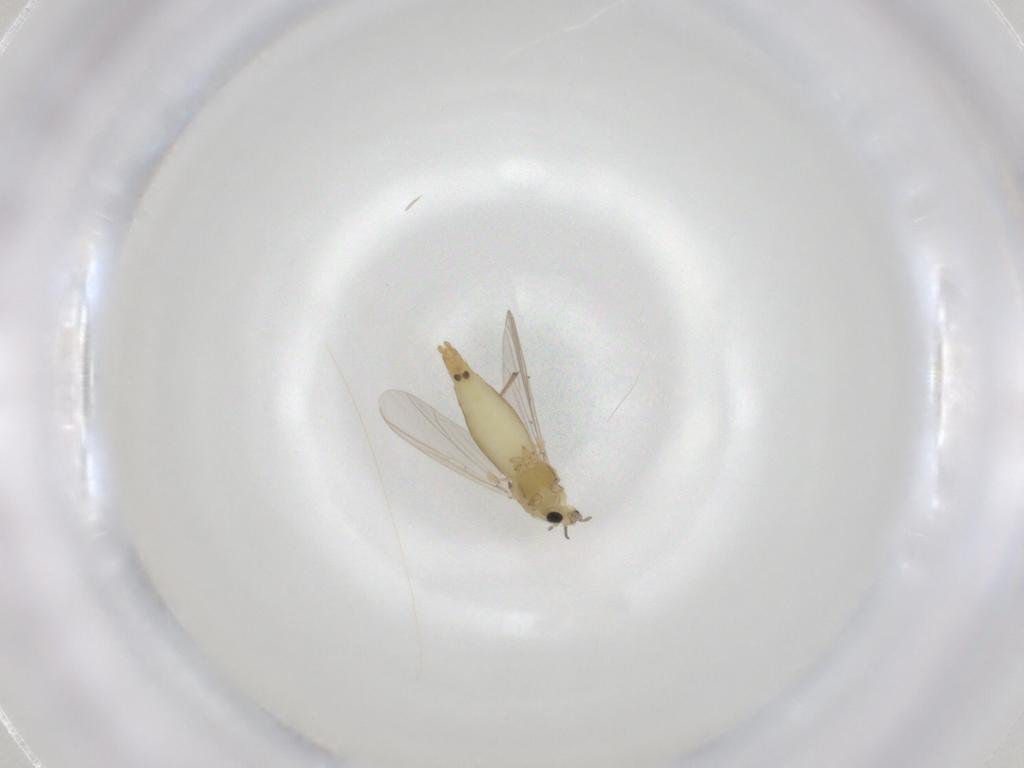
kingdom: Animalia
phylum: Arthropoda
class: Insecta
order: Diptera
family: Chironomidae
